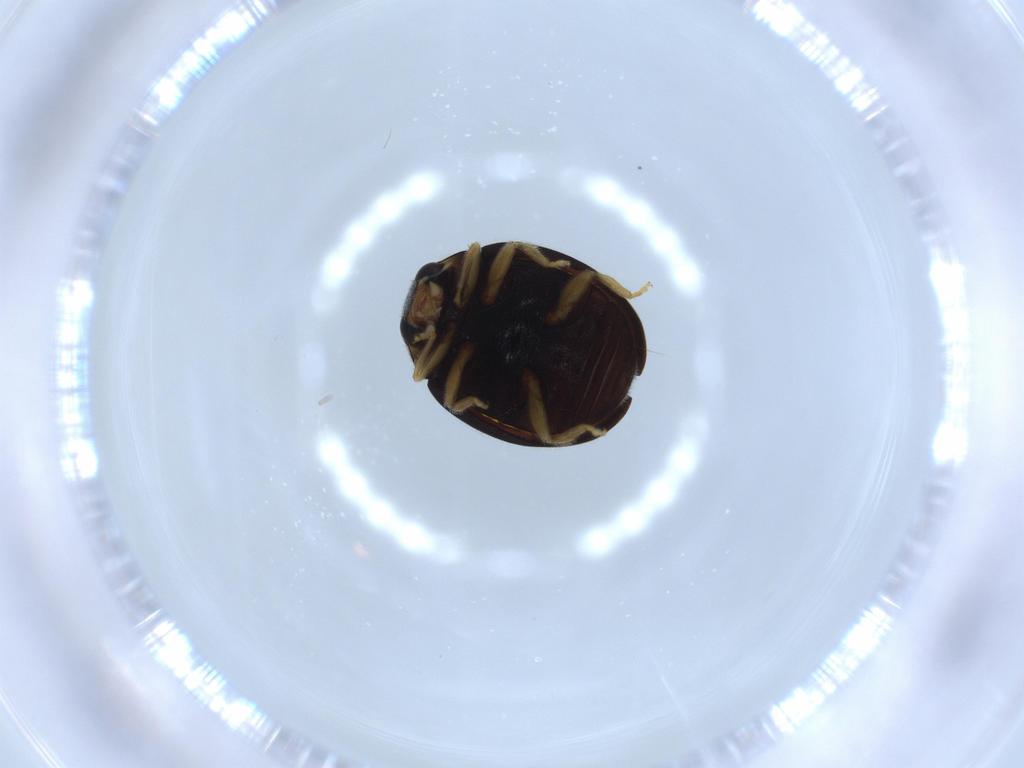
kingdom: Animalia
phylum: Arthropoda
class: Insecta
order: Coleoptera
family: Coccinellidae
